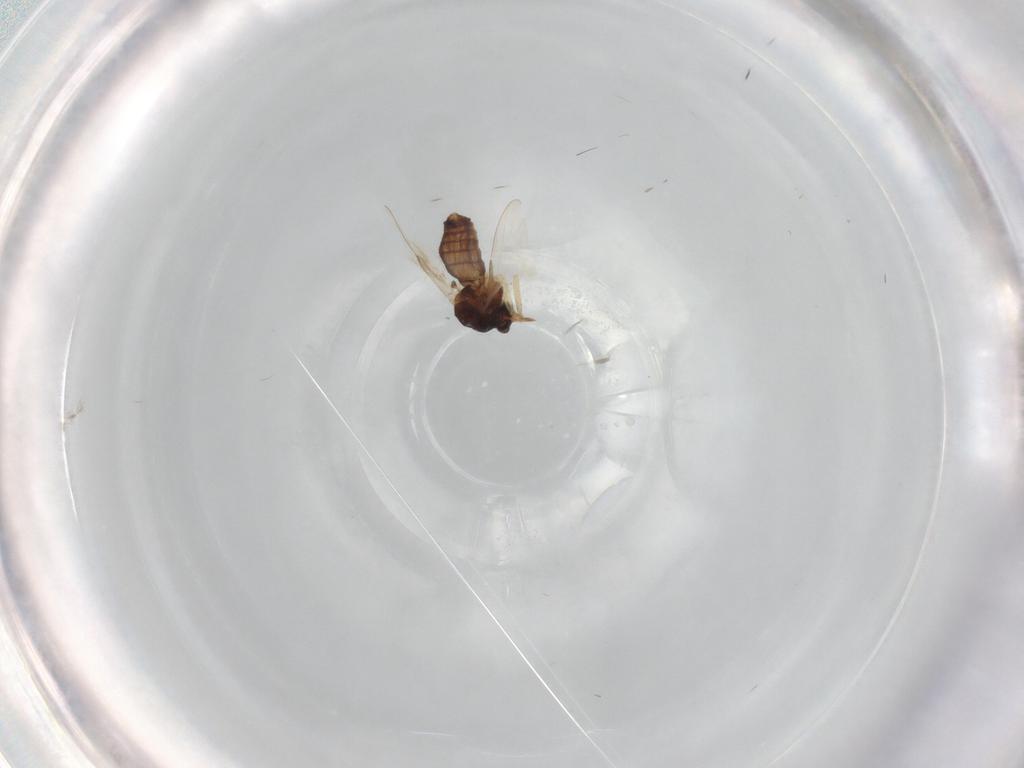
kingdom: Animalia
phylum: Arthropoda
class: Insecta
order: Diptera
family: Ceratopogonidae
